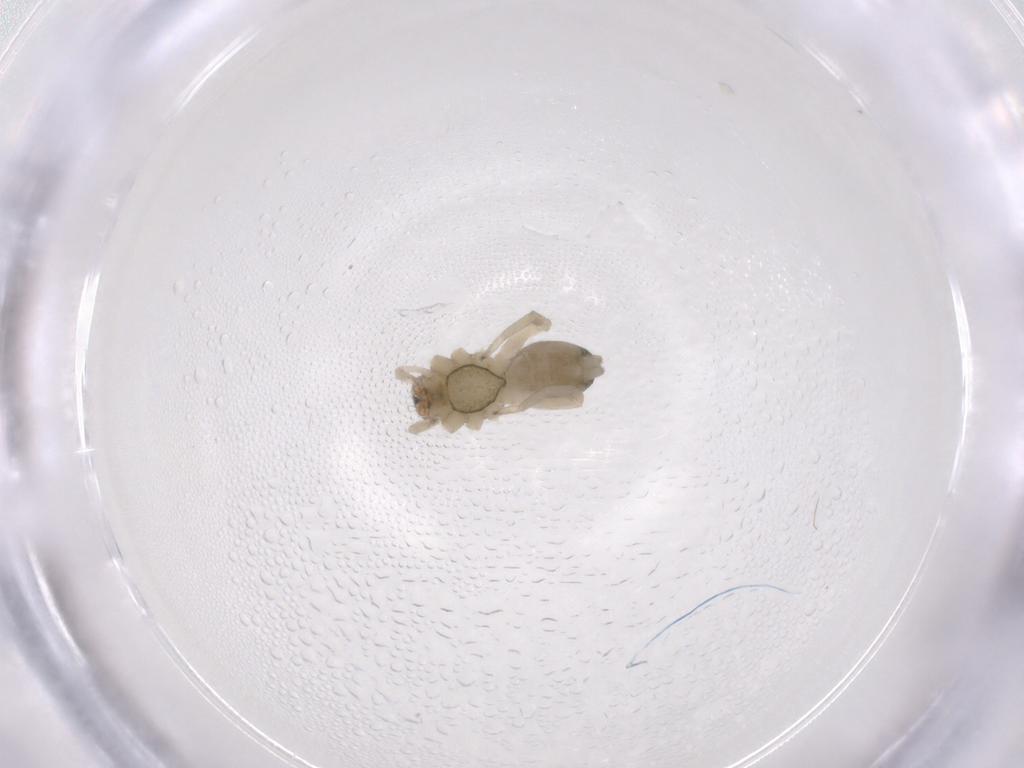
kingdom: Animalia
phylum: Arthropoda
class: Arachnida
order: Araneae
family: Trachelidae
